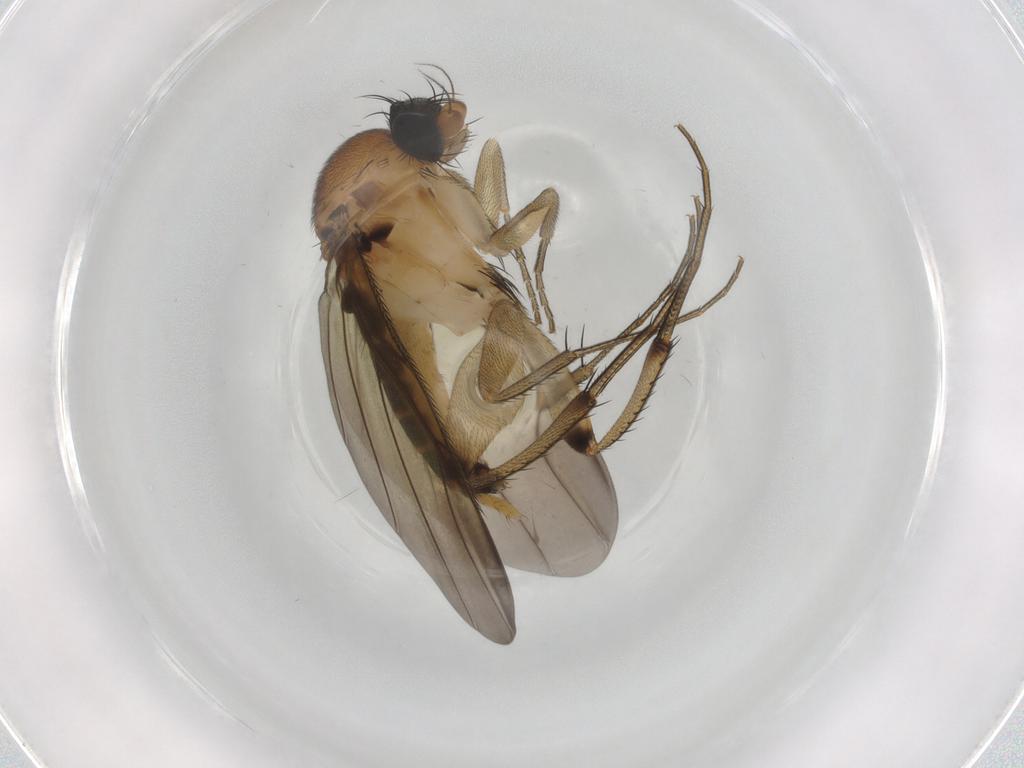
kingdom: Animalia
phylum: Arthropoda
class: Insecta
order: Diptera
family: Phoridae
